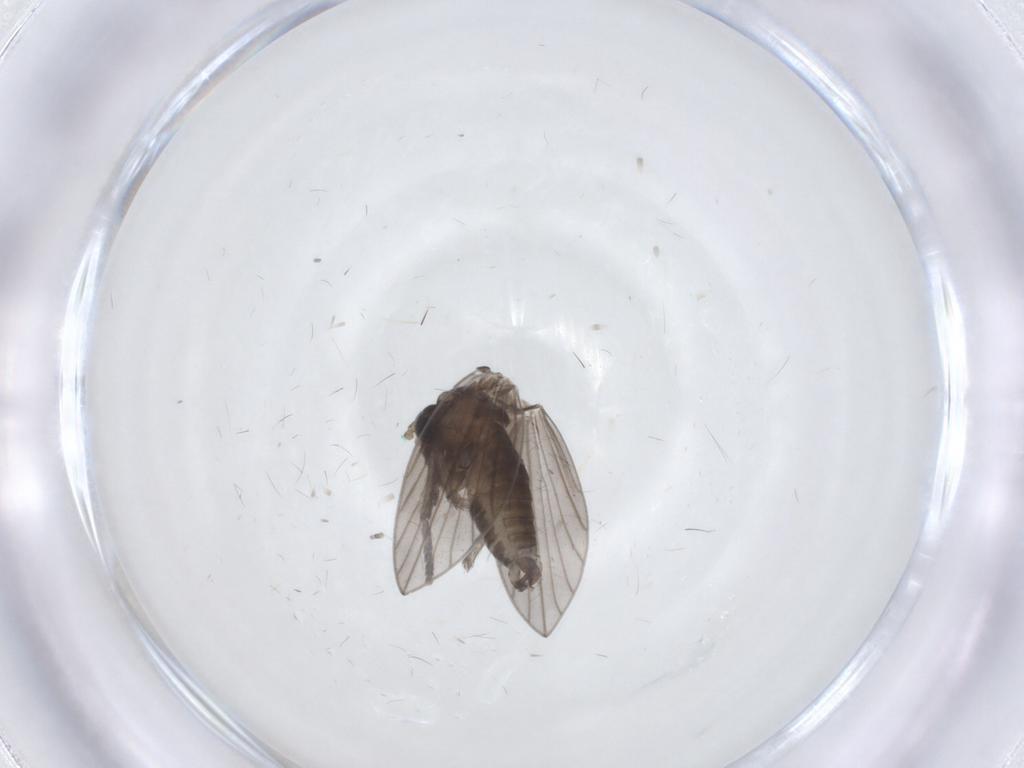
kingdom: Animalia
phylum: Arthropoda
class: Insecta
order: Diptera
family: Psychodidae
